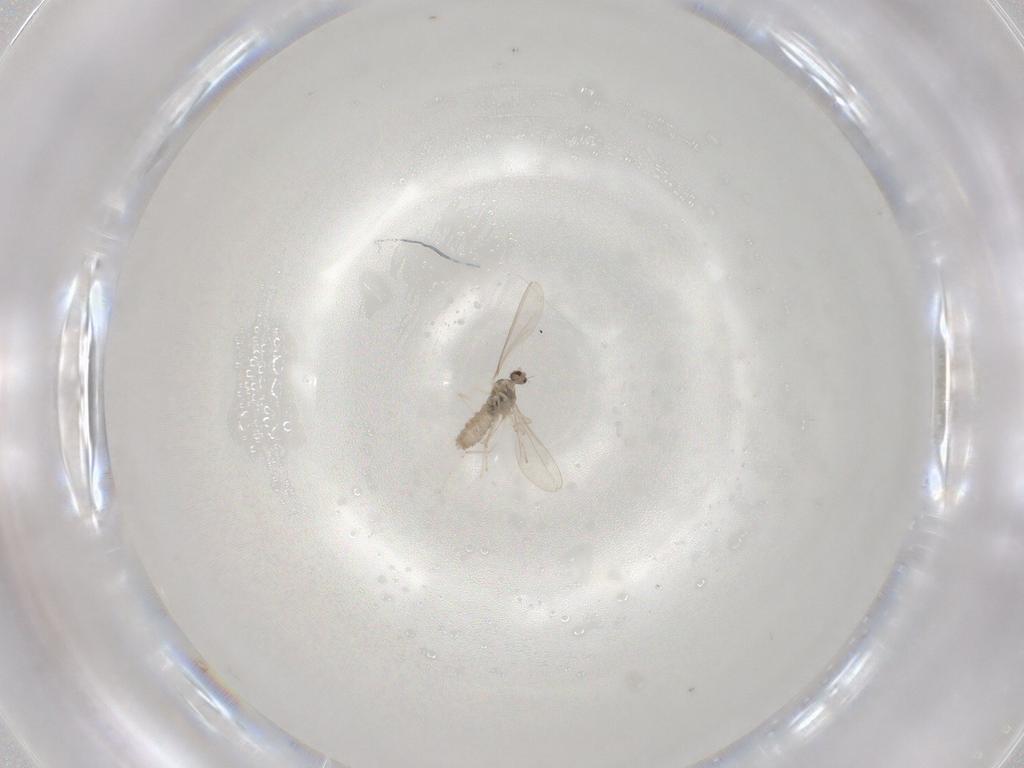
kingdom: Animalia
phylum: Arthropoda
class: Insecta
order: Diptera
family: Cecidomyiidae
